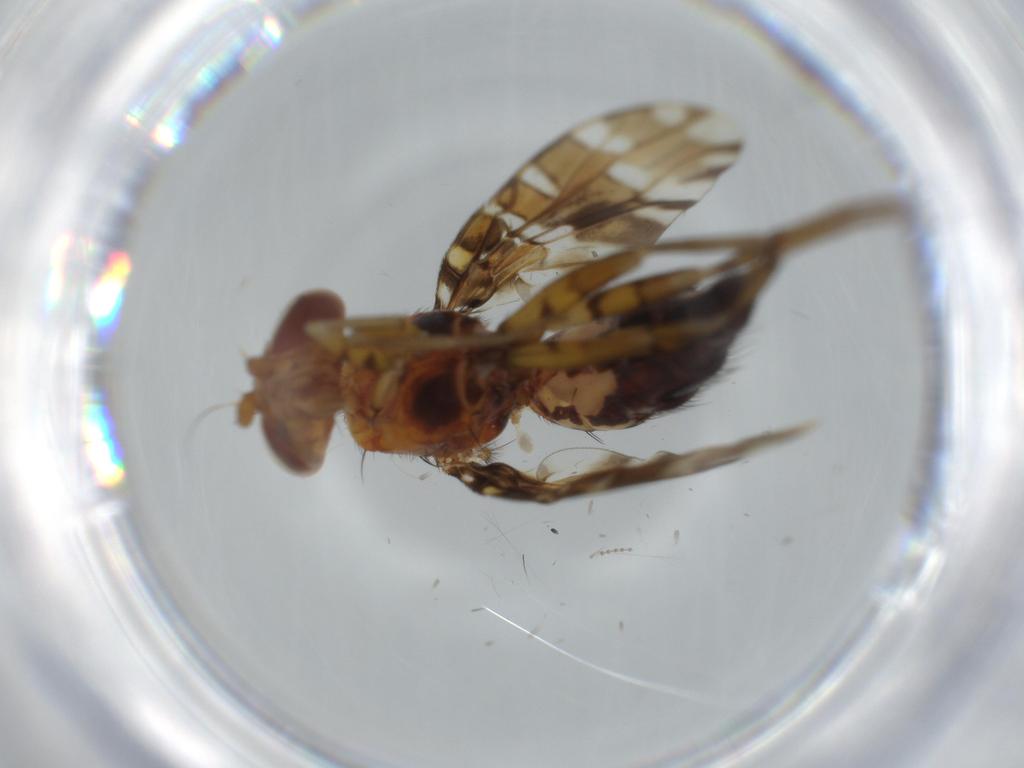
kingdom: Animalia
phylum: Arthropoda
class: Insecta
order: Diptera
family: Ulidiidae
